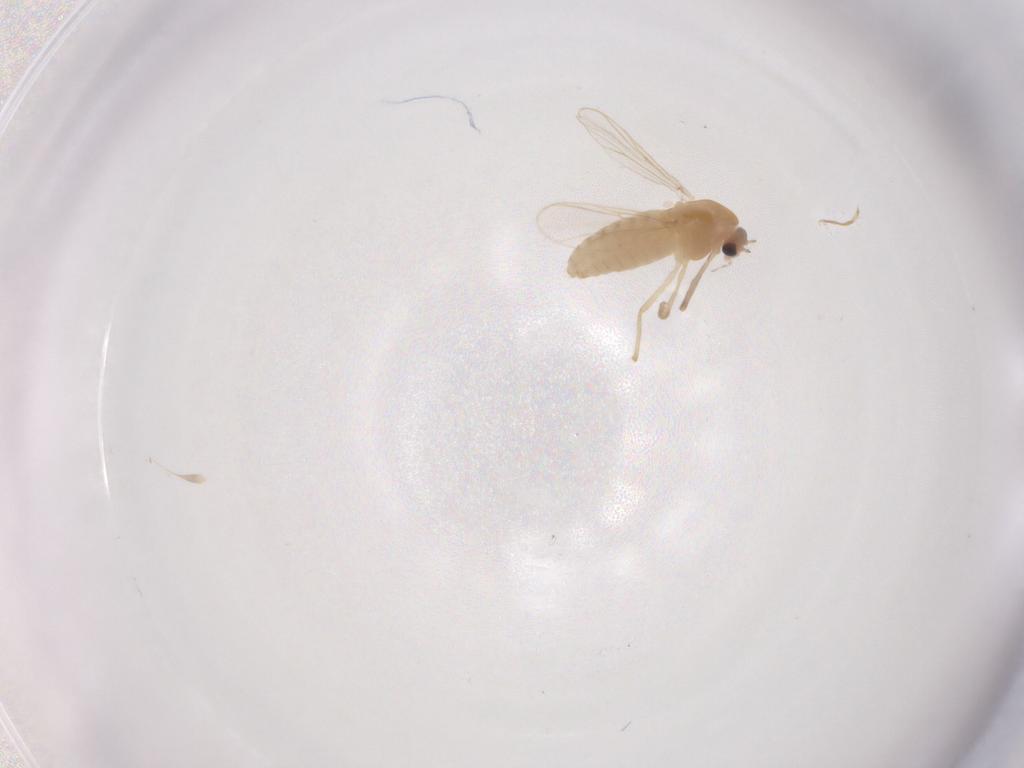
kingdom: Animalia
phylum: Arthropoda
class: Insecta
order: Diptera
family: Chironomidae
